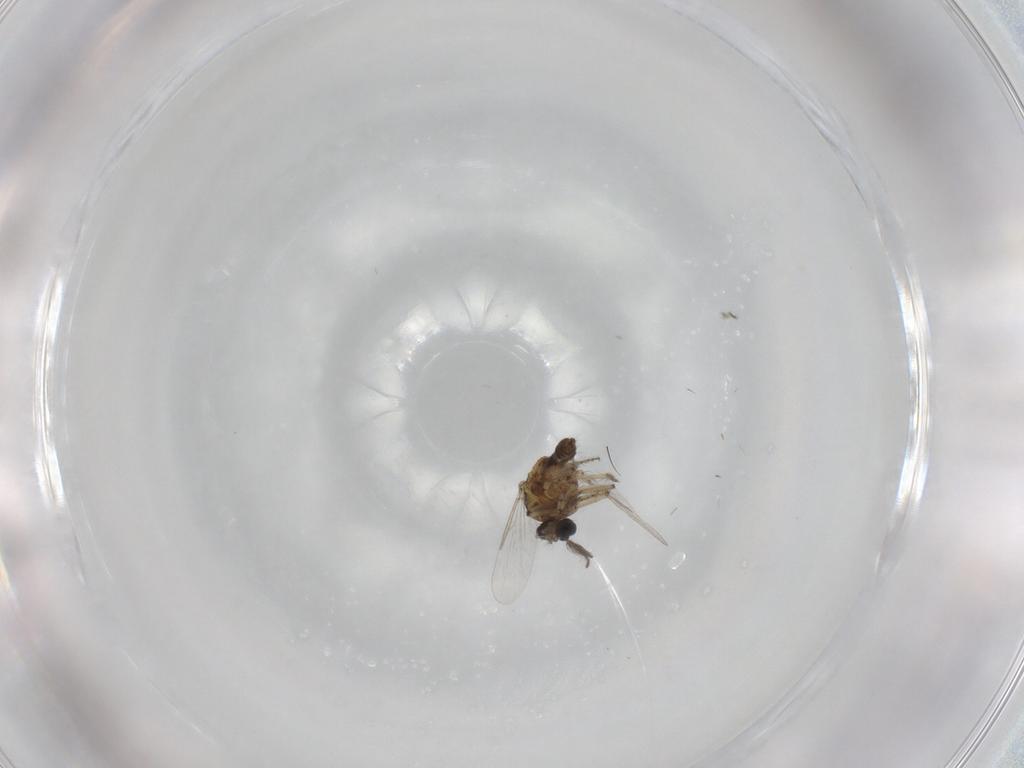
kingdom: Animalia
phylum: Arthropoda
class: Insecta
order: Diptera
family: Ceratopogonidae
